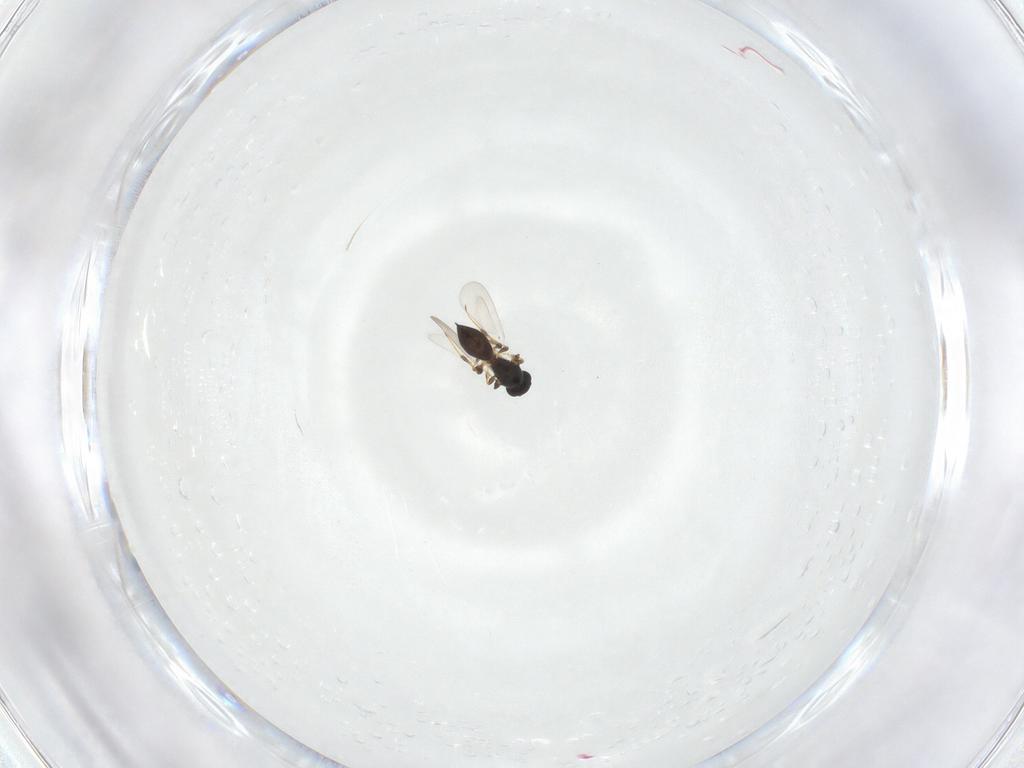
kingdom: Animalia
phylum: Arthropoda
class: Insecta
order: Hymenoptera
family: Platygastridae
